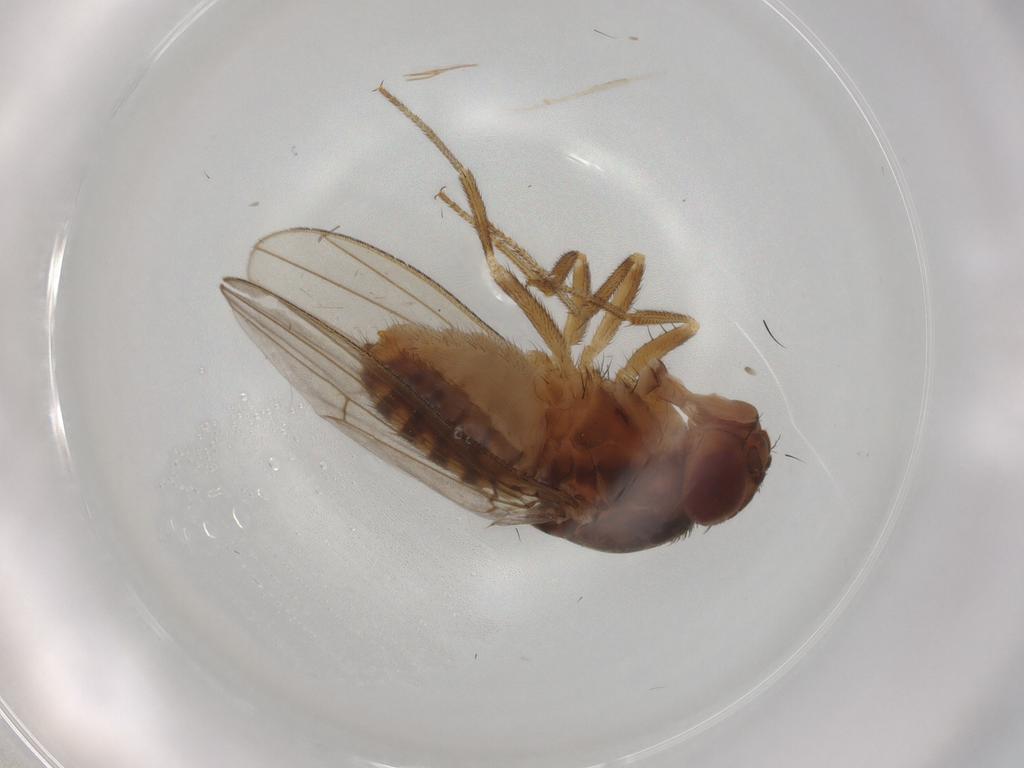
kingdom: Animalia
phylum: Arthropoda
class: Insecta
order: Diptera
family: Drosophilidae
